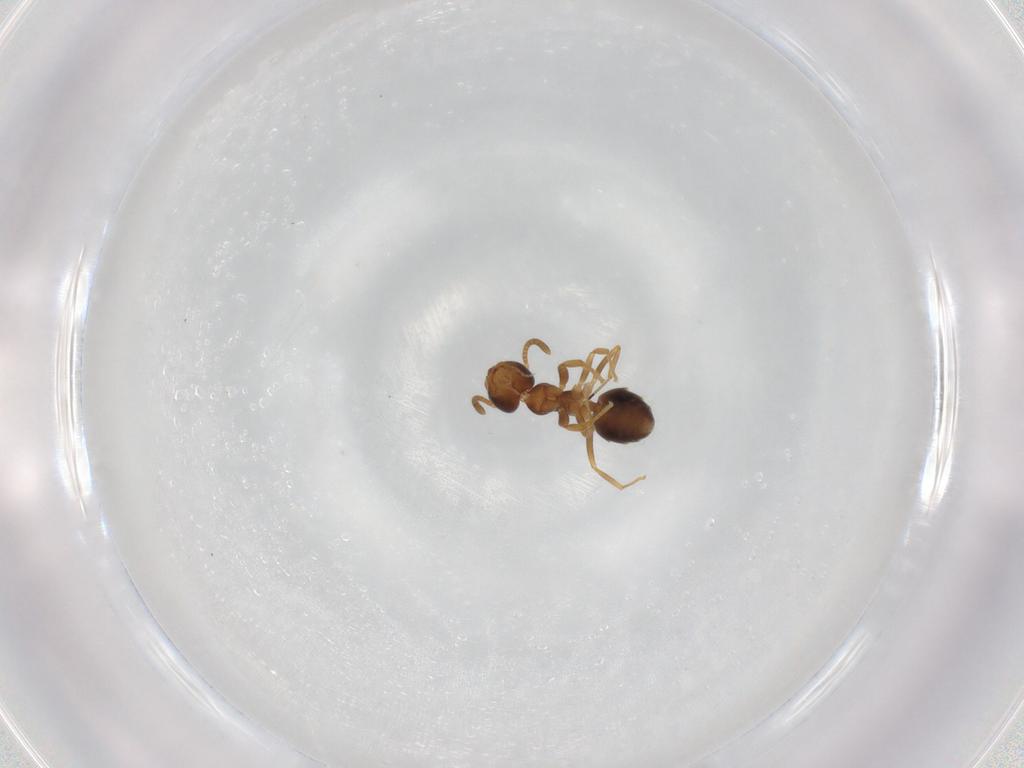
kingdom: Animalia
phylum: Arthropoda
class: Insecta
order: Hymenoptera
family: Formicidae
